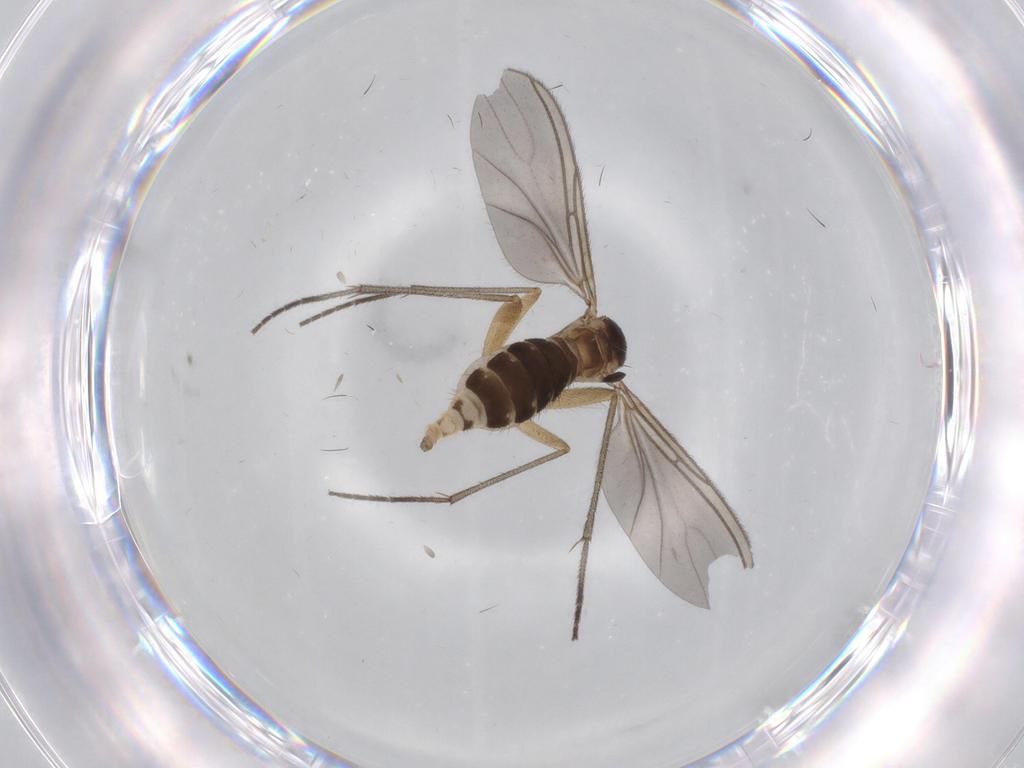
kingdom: Animalia
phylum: Arthropoda
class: Insecta
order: Diptera
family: Sciaridae
